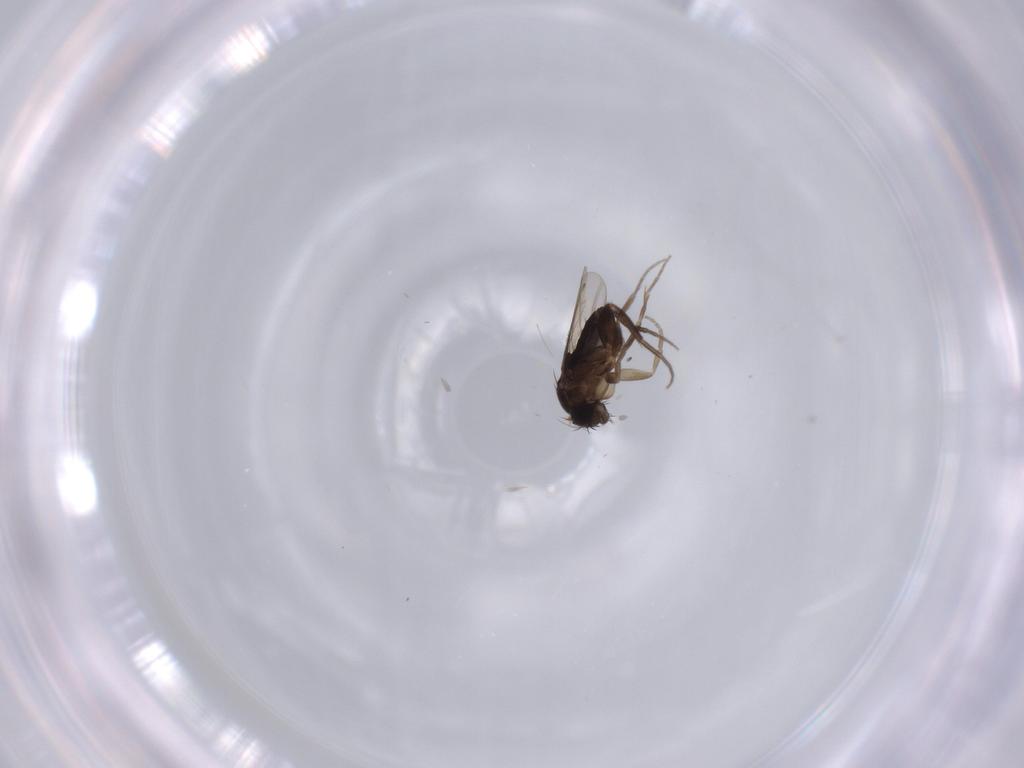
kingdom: Animalia
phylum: Arthropoda
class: Insecta
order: Diptera
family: Phoridae
